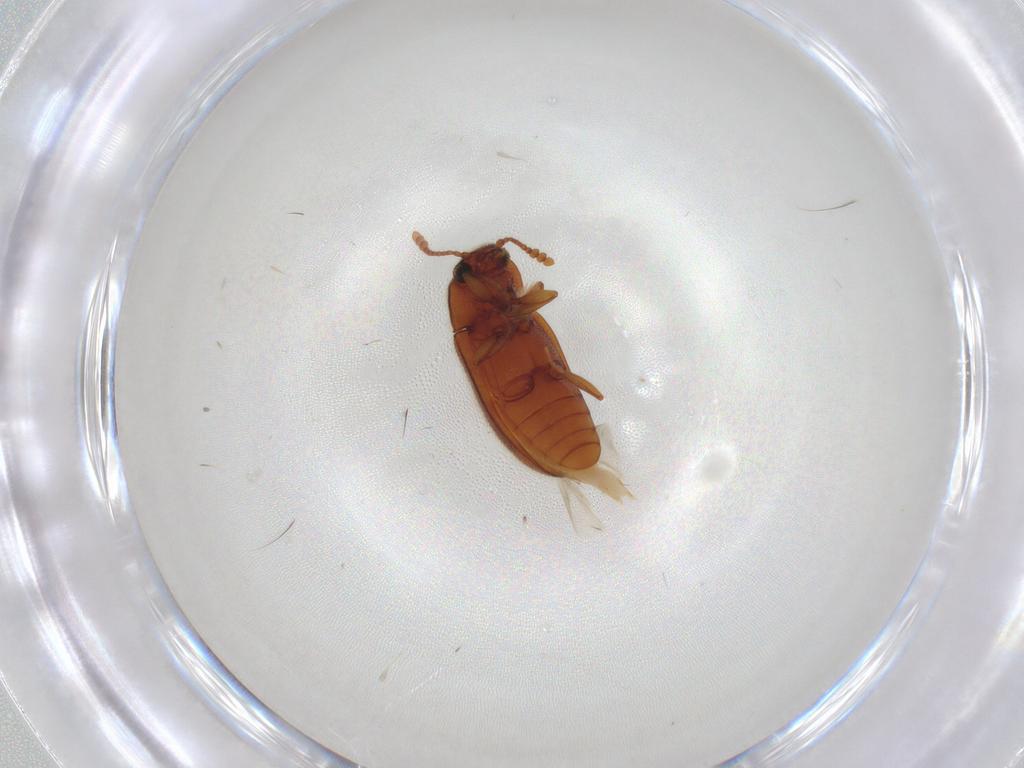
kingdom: Animalia
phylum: Arthropoda
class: Insecta
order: Coleoptera
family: Erotylidae
